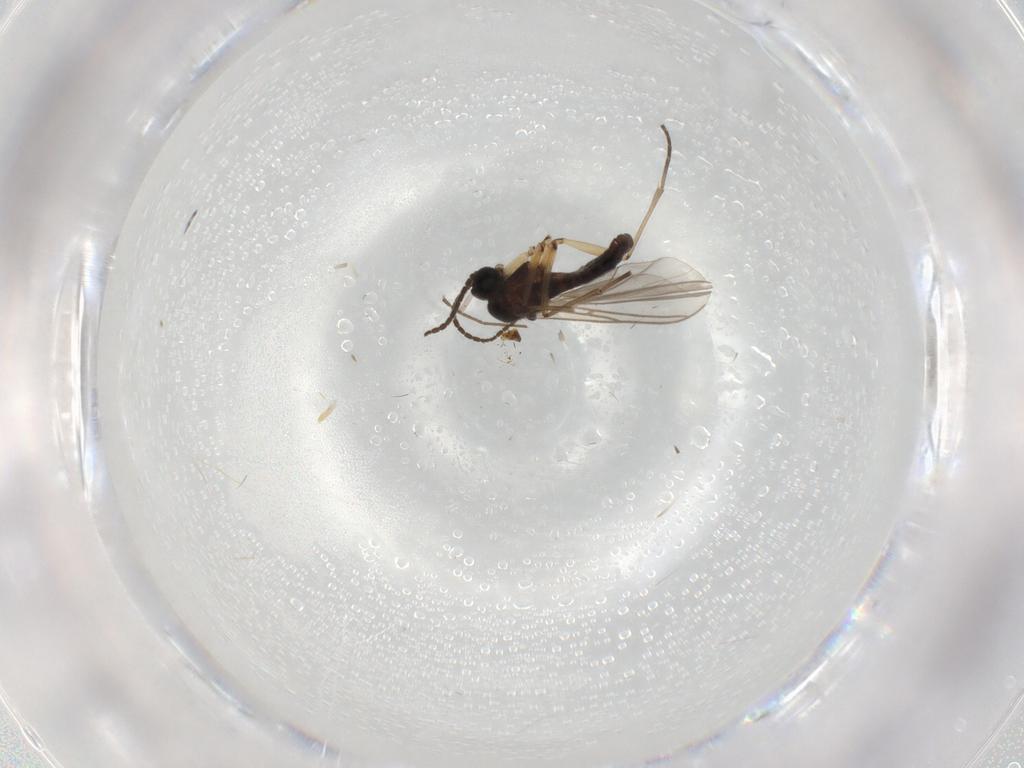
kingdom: Animalia
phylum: Arthropoda
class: Insecta
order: Diptera
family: Sciaridae
